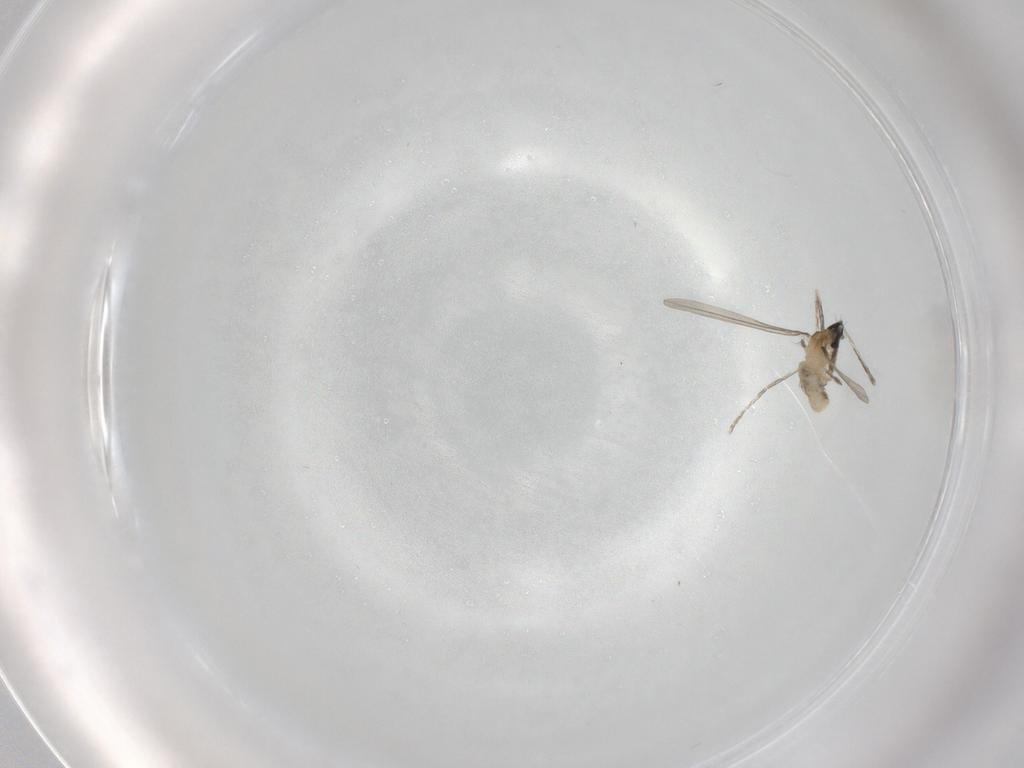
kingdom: Animalia
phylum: Arthropoda
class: Insecta
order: Diptera
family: Cecidomyiidae
